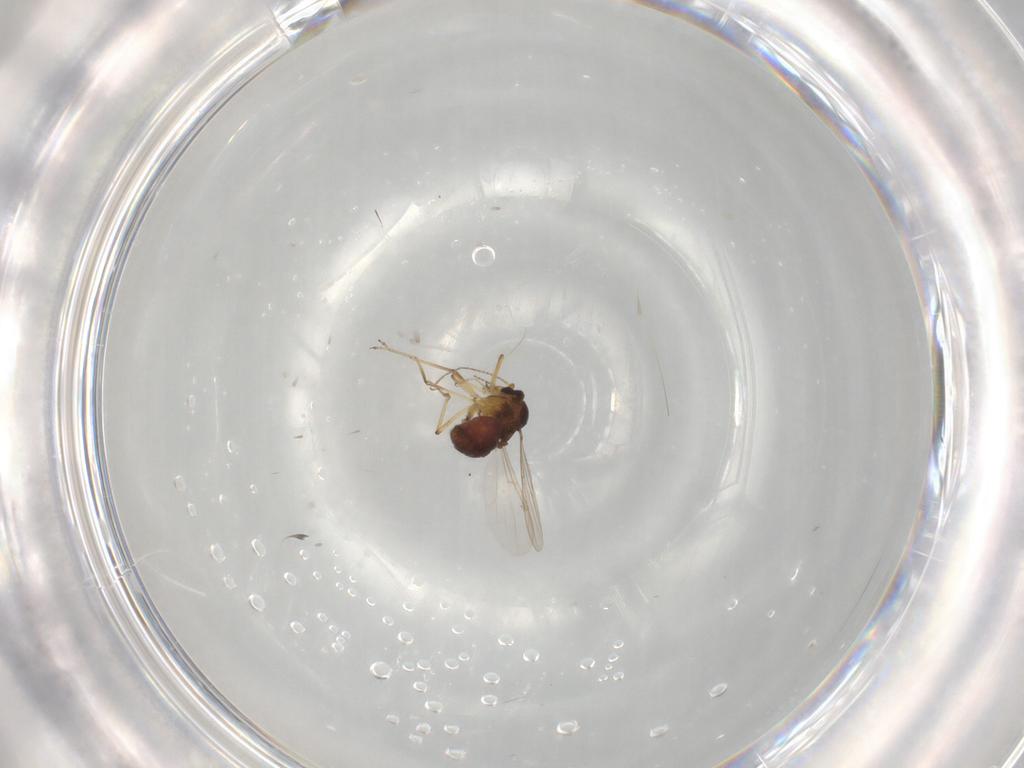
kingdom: Animalia
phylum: Arthropoda
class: Insecta
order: Diptera
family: Ceratopogonidae
